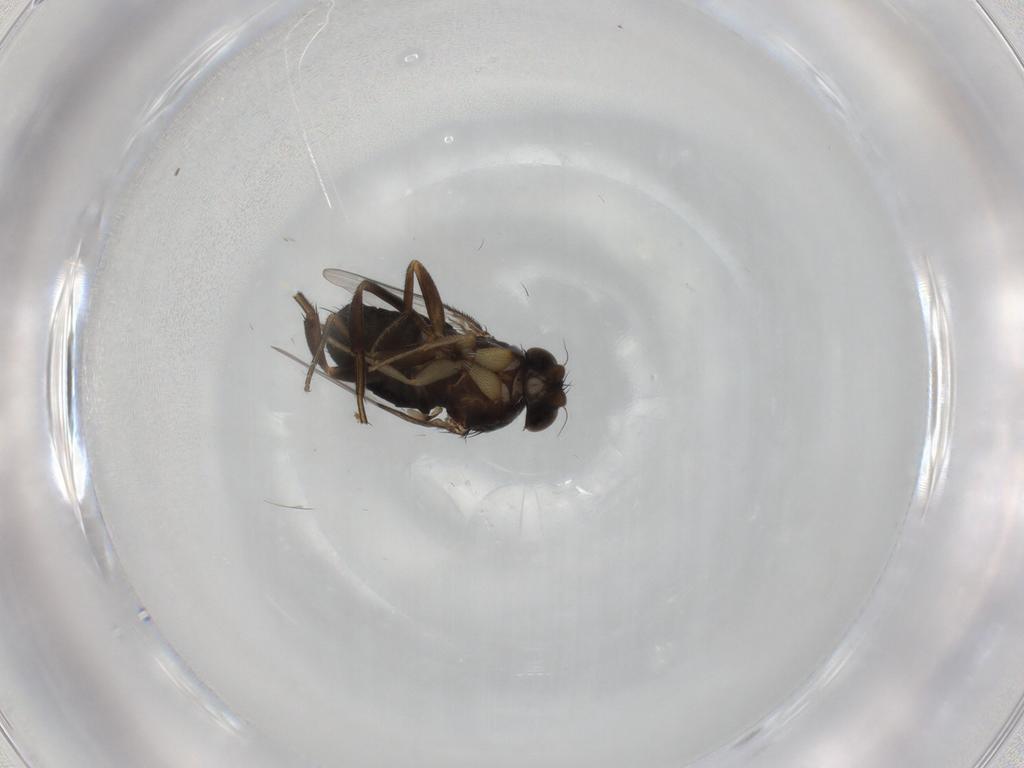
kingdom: Animalia
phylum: Arthropoda
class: Insecta
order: Diptera
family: Phoridae
